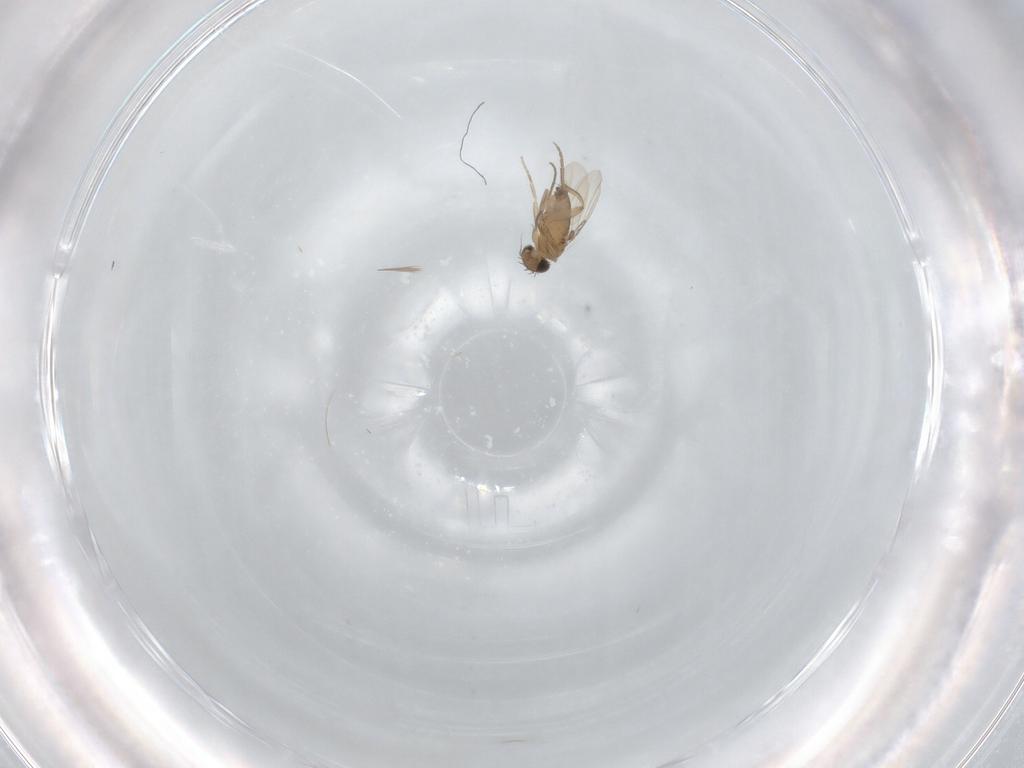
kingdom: Animalia
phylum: Arthropoda
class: Insecta
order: Diptera
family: Phoridae
